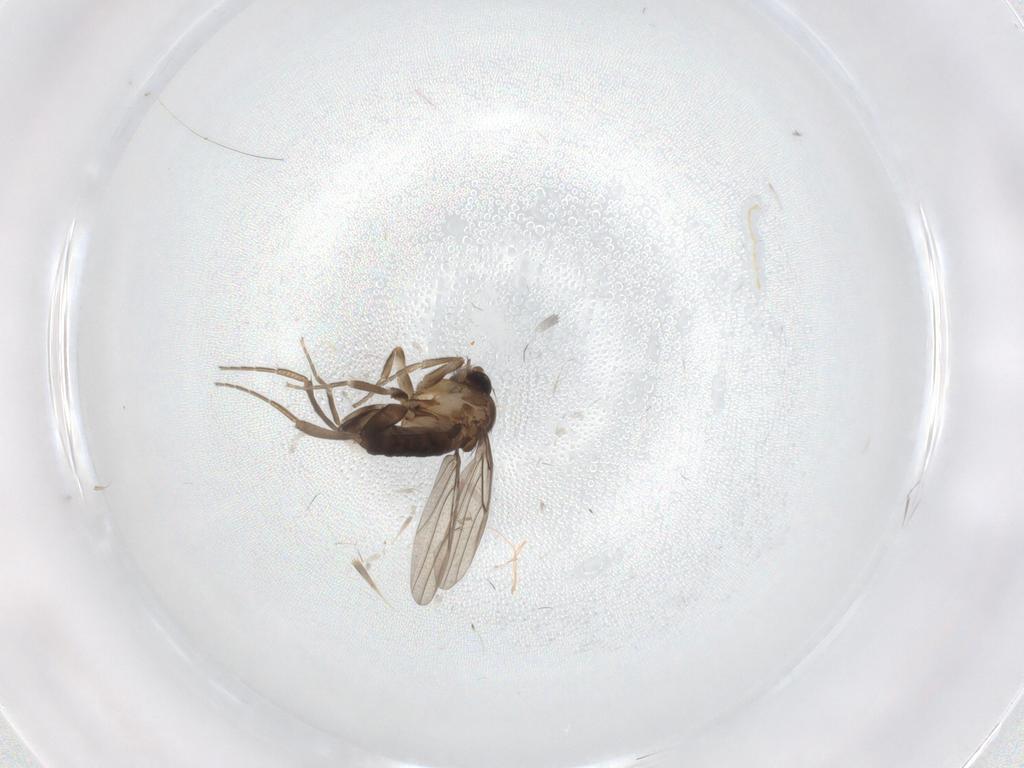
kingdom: Animalia
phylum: Arthropoda
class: Insecta
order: Diptera
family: Phoridae
